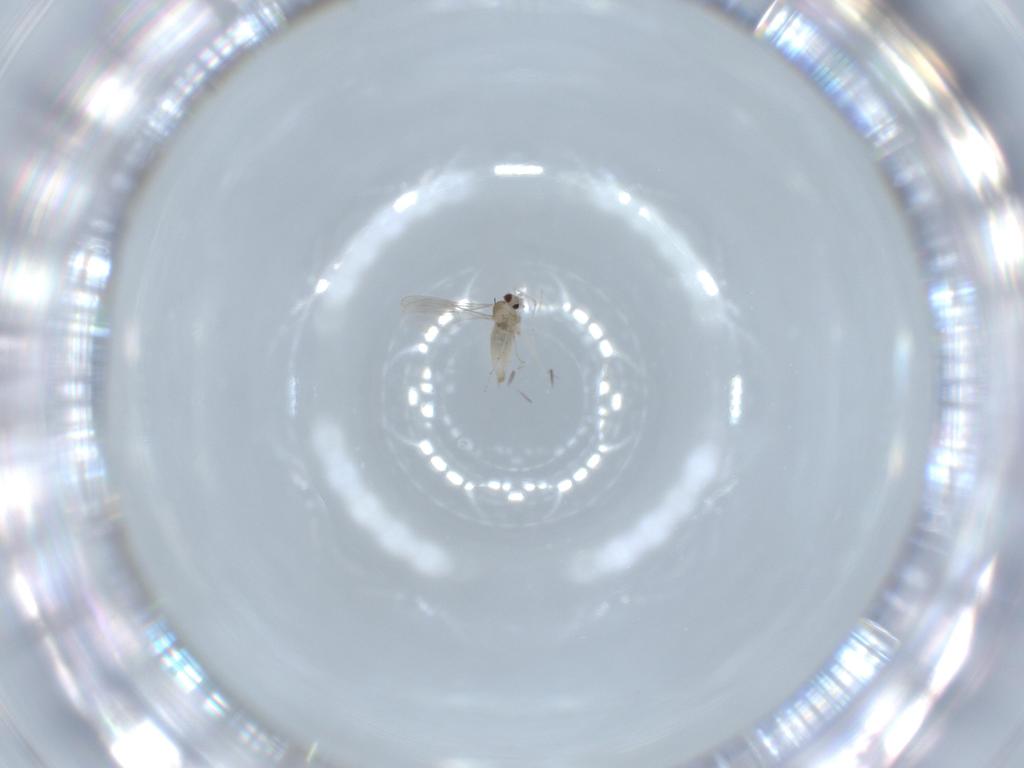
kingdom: Animalia
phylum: Arthropoda
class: Insecta
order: Diptera
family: Cecidomyiidae
